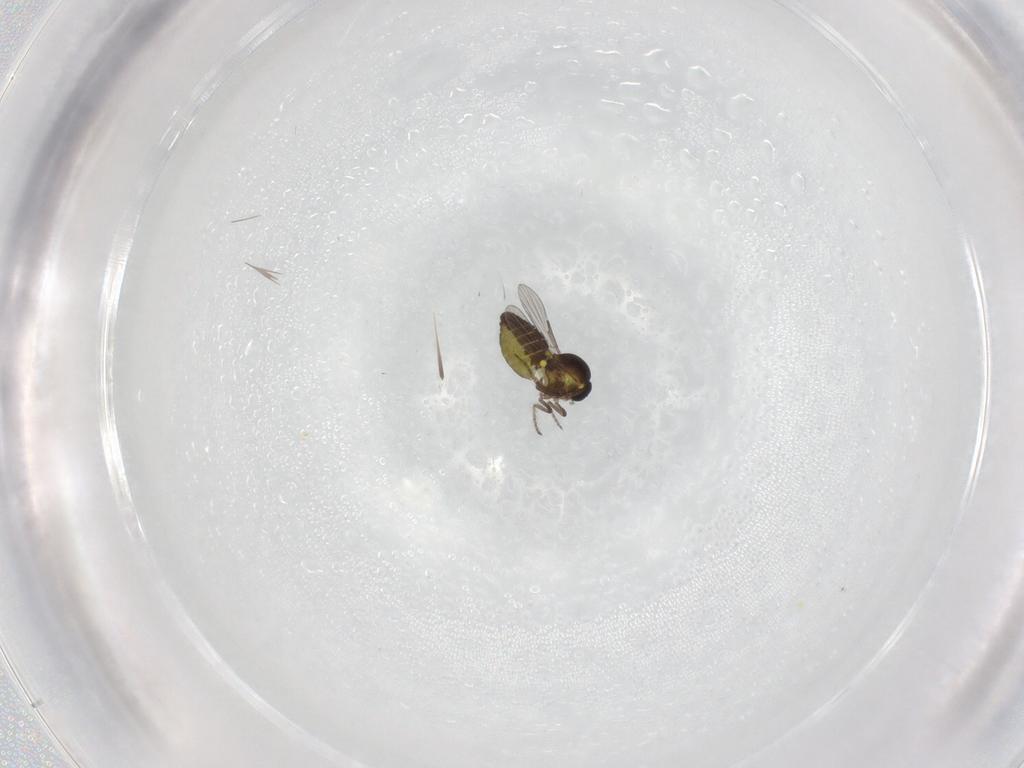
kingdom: Animalia
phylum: Arthropoda
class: Insecta
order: Diptera
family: Ceratopogonidae
